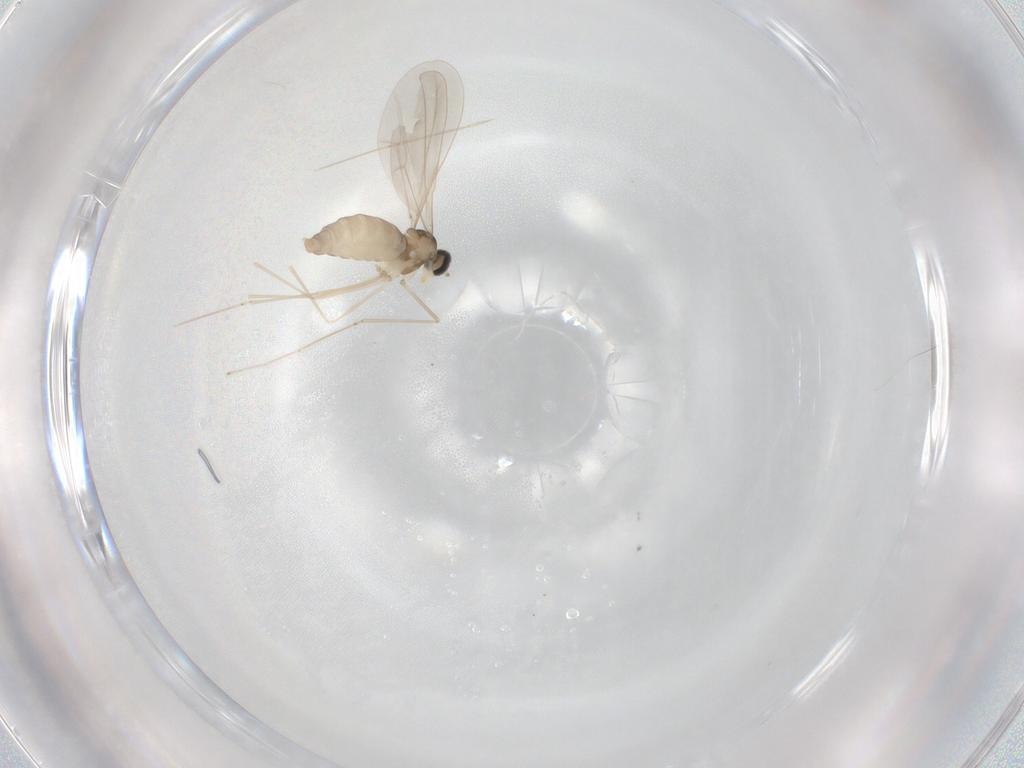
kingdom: Animalia
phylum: Arthropoda
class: Insecta
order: Diptera
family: Cecidomyiidae
